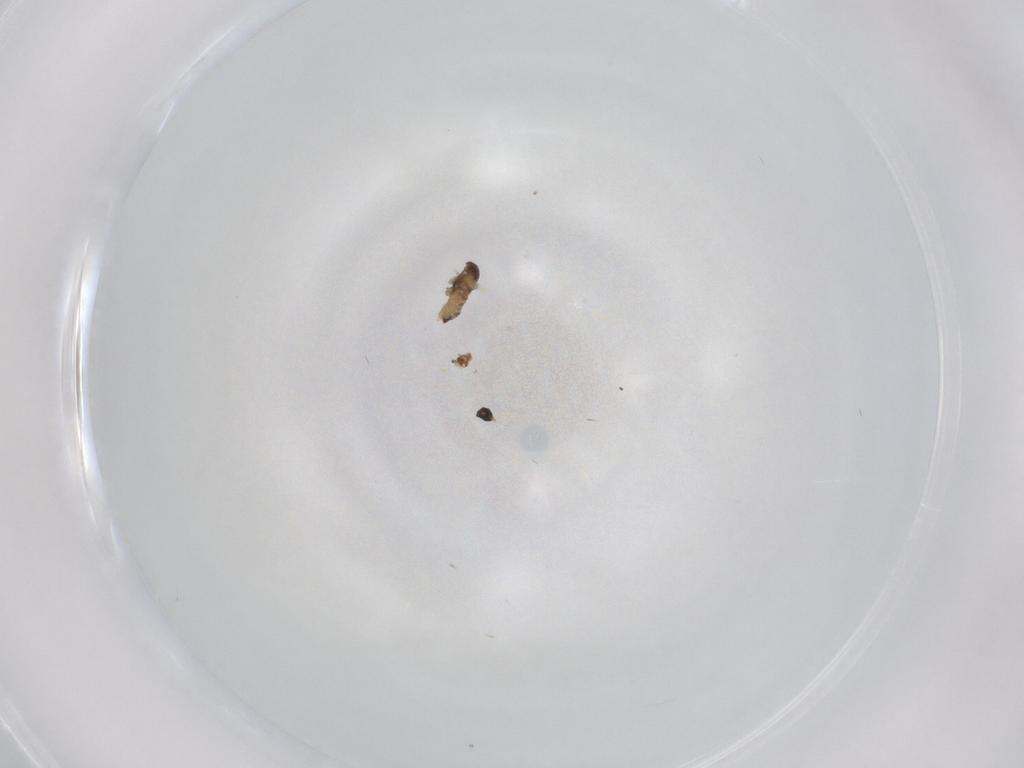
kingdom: Animalia
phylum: Arthropoda
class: Insecta
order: Diptera
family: Cecidomyiidae
